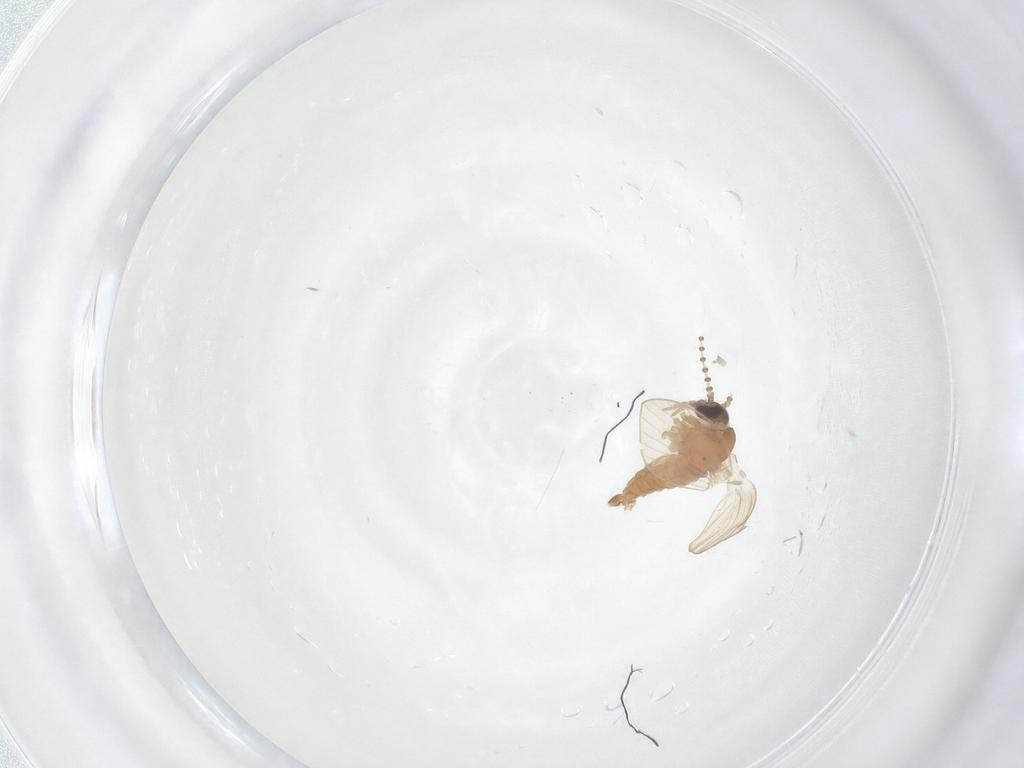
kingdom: Animalia
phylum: Arthropoda
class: Insecta
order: Diptera
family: Psychodidae
